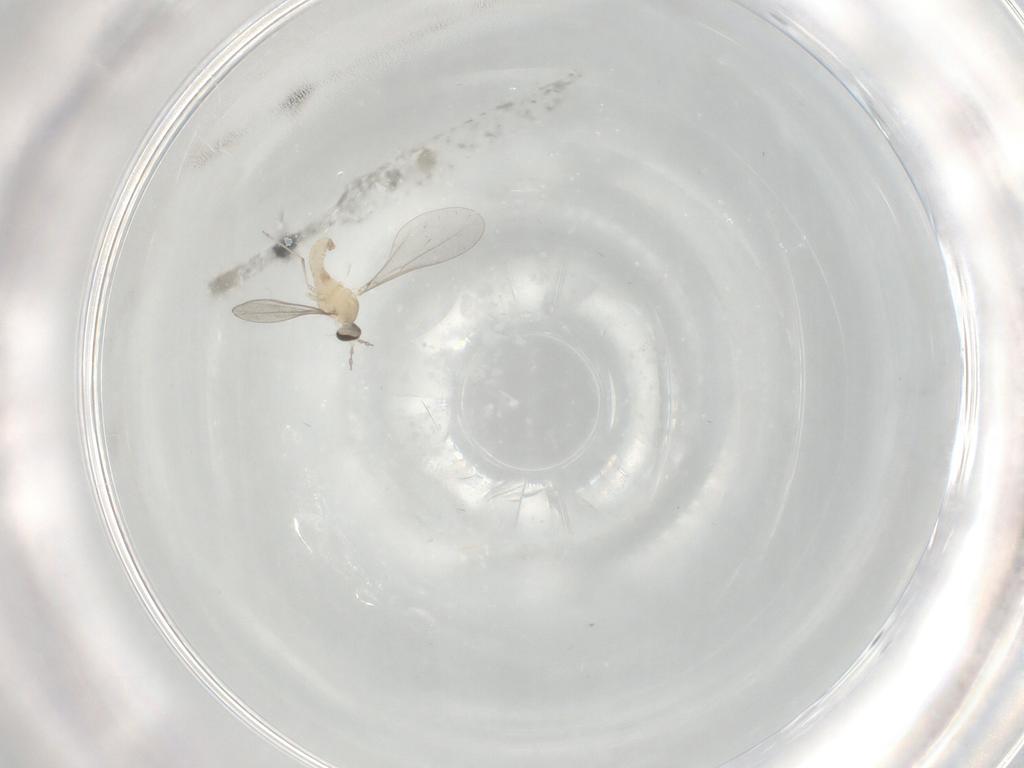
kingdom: Animalia
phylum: Arthropoda
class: Insecta
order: Diptera
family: Cecidomyiidae
